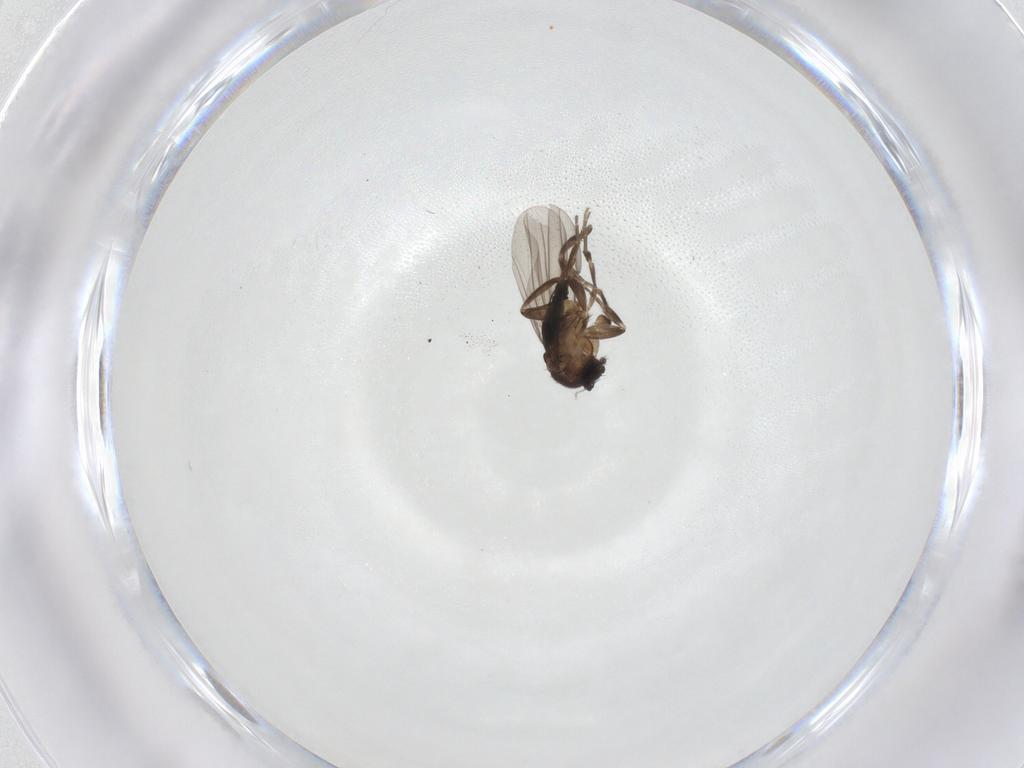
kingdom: Animalia
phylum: Arthropoda
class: Insecta
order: Diptera
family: Phoridae
